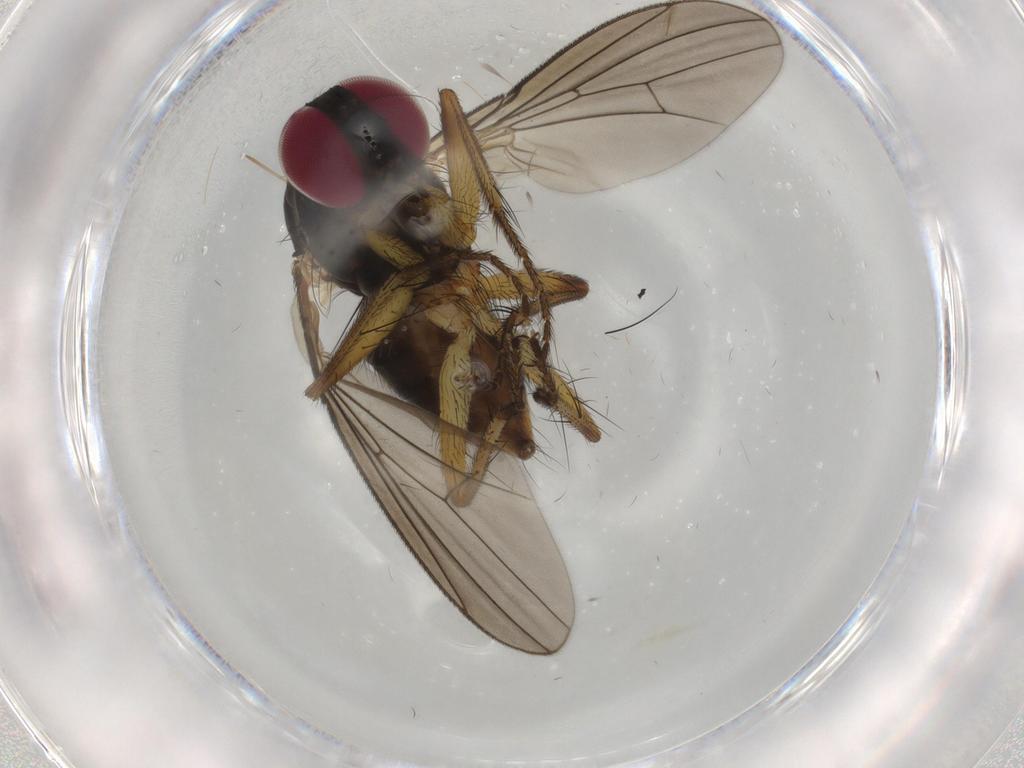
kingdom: Animalia
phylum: Arthropoda
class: Insecta
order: Diptera
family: Anthomyiidae
